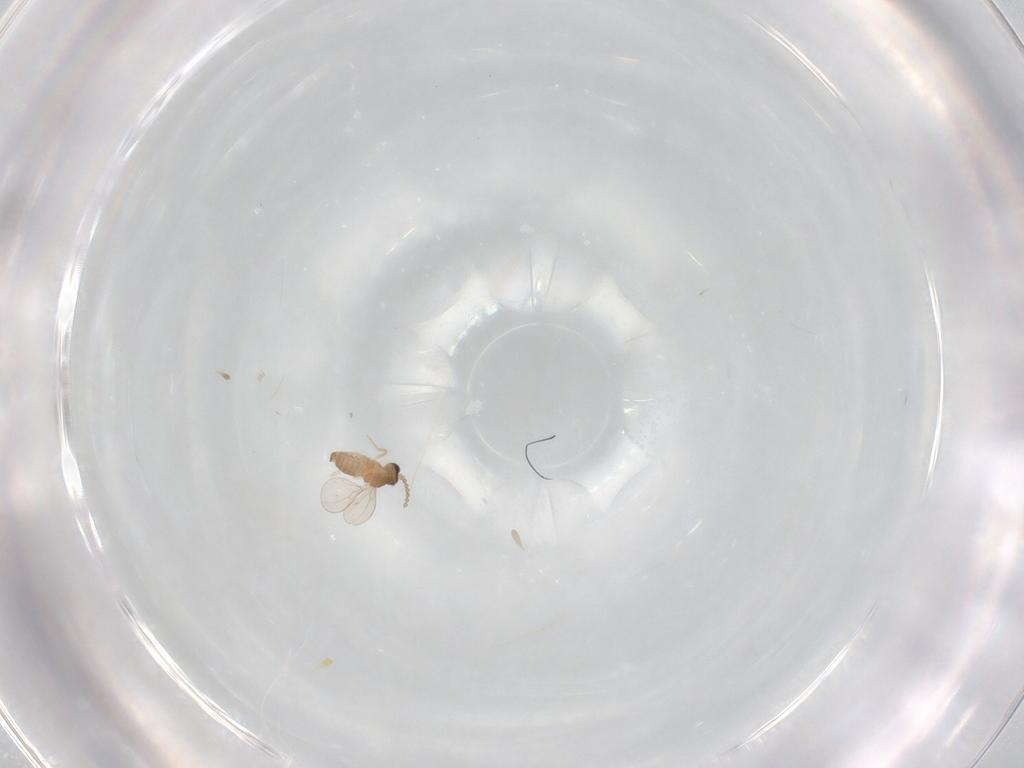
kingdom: Animalia
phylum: Arthropoda
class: Insecta
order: Diptera
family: Cecidomyiidae
